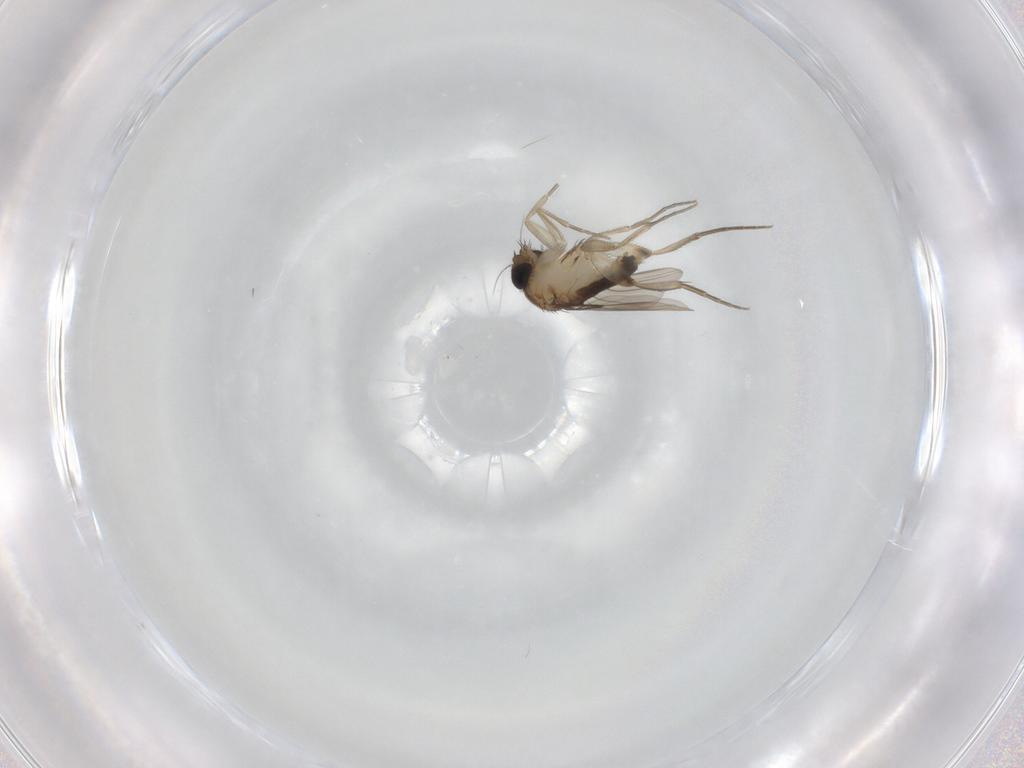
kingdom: Animalia
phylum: Arthropoda
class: Insecta
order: Diptera
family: Phoridae
